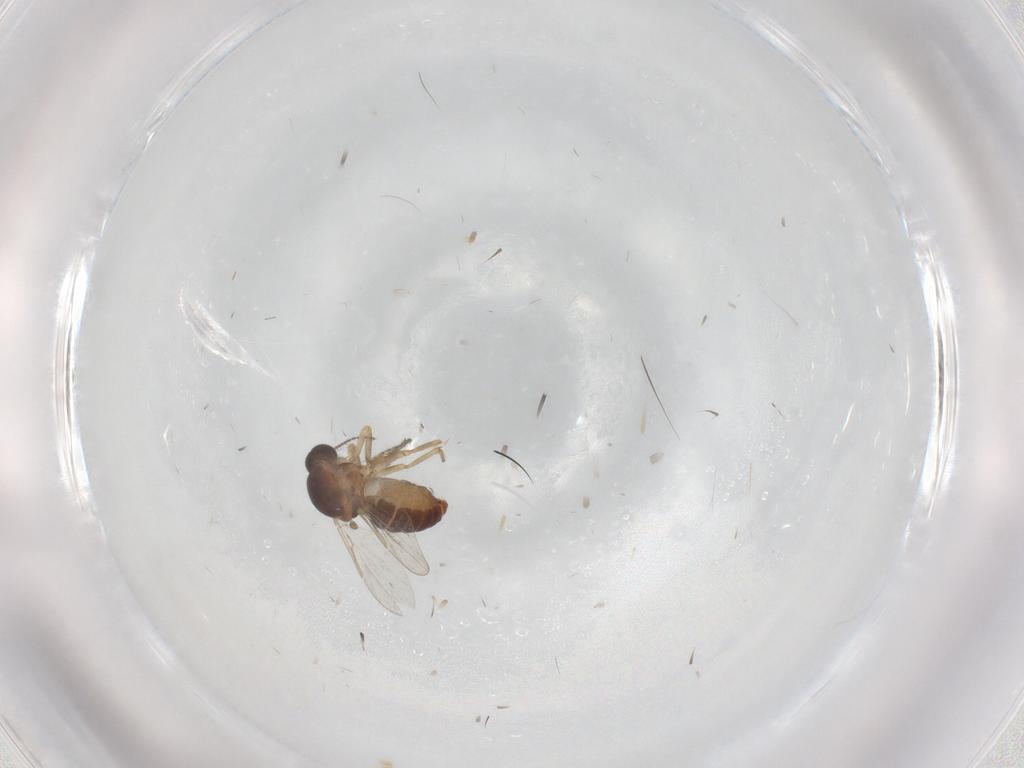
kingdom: Animalia
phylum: Arthropoda
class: Insecta
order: Diptera
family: Ceratopogonidae
